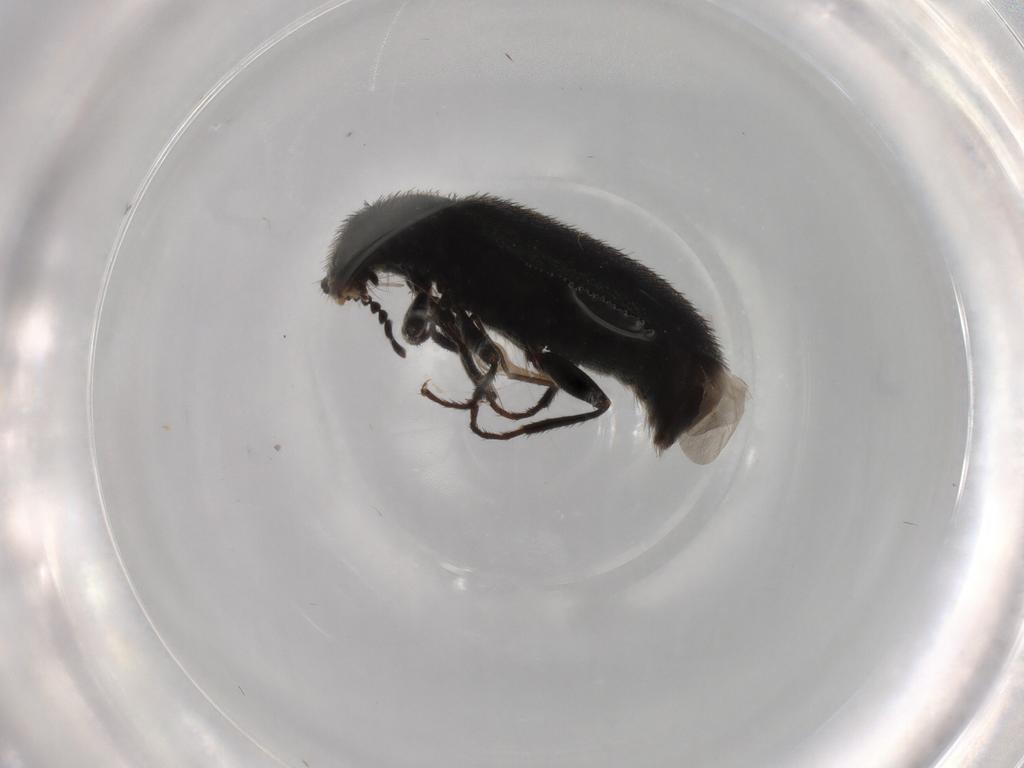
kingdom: Animalia
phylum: Arthropoda
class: Insecta
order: Coleoptera
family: Melyridae
